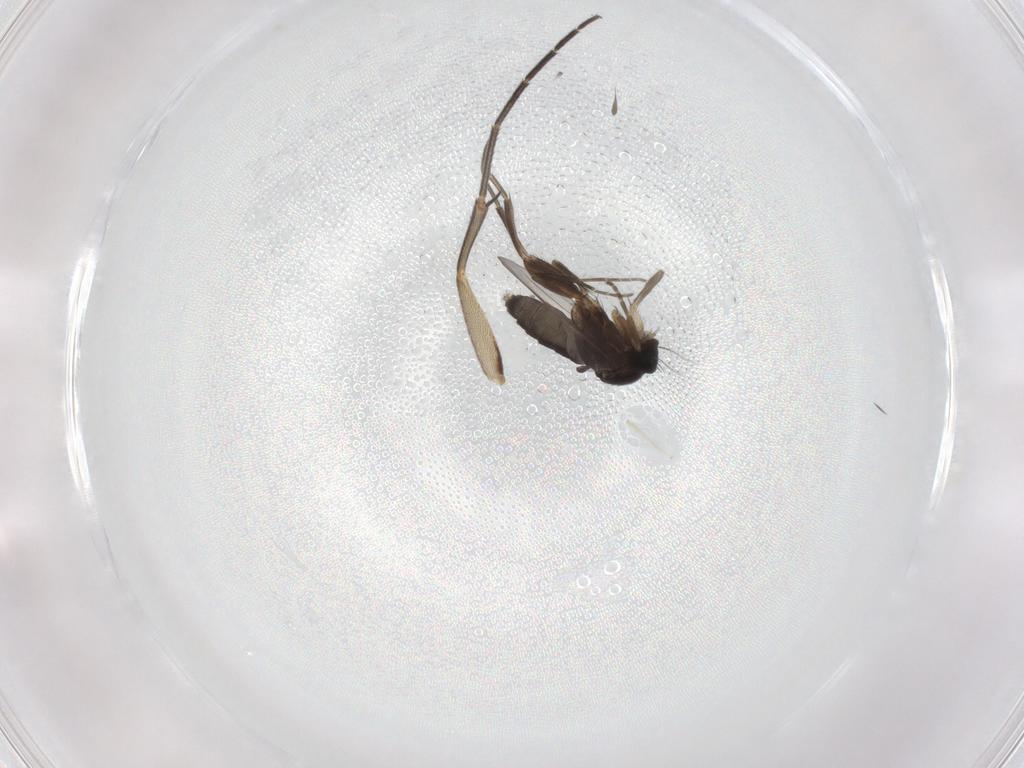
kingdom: Animalia
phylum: Arthropoda
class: Insecta
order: Diptera
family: Phoridae
